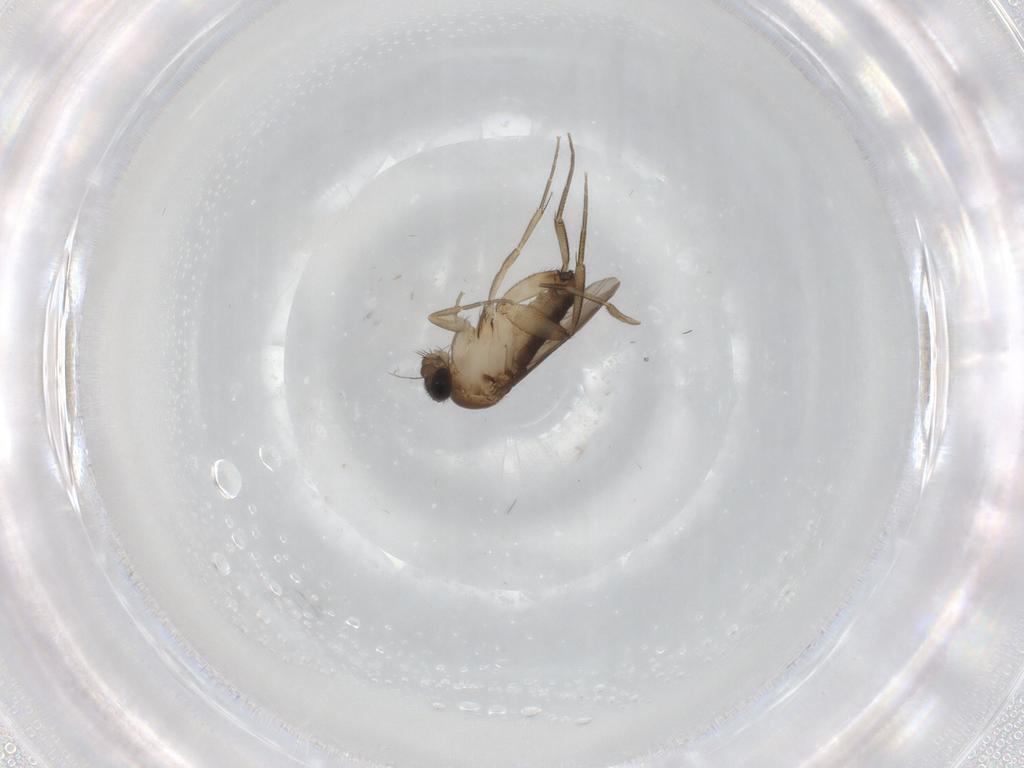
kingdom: Animalia
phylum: Arthropoda
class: Insecta
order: Diptera
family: Phoridae
